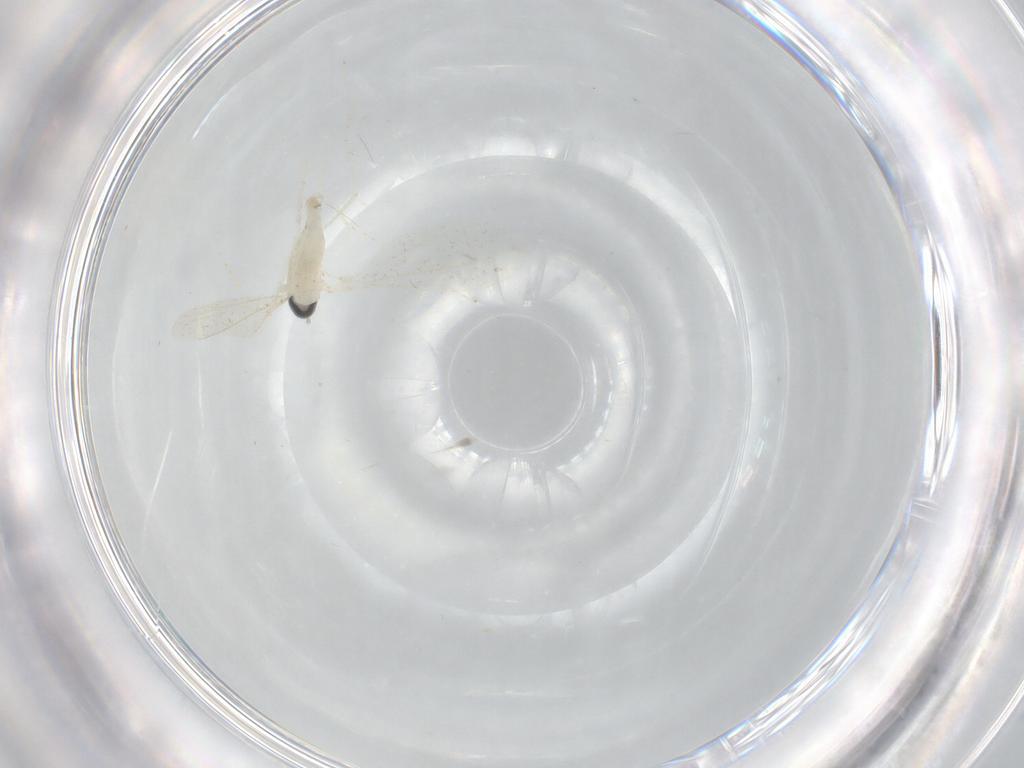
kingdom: Animalia
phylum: Arthropoda
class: Insecta
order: Diptera
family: Cecidomyiidae
